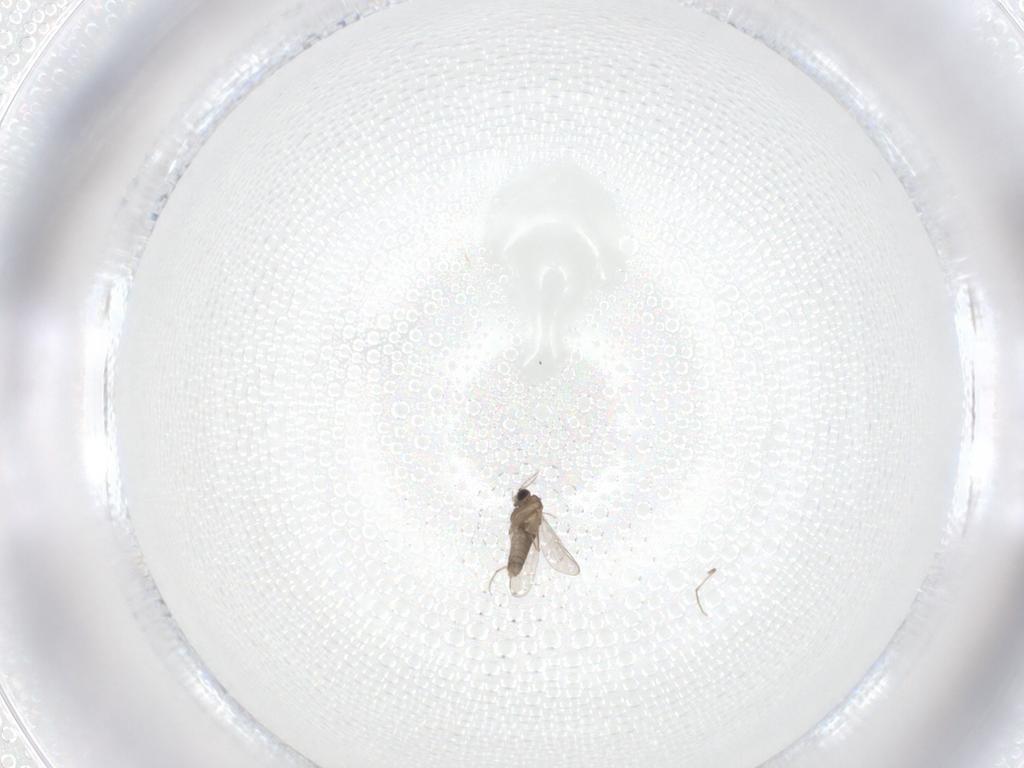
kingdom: Animalia
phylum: Arthropoda
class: Insecta
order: Diptera
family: Chironomidae
